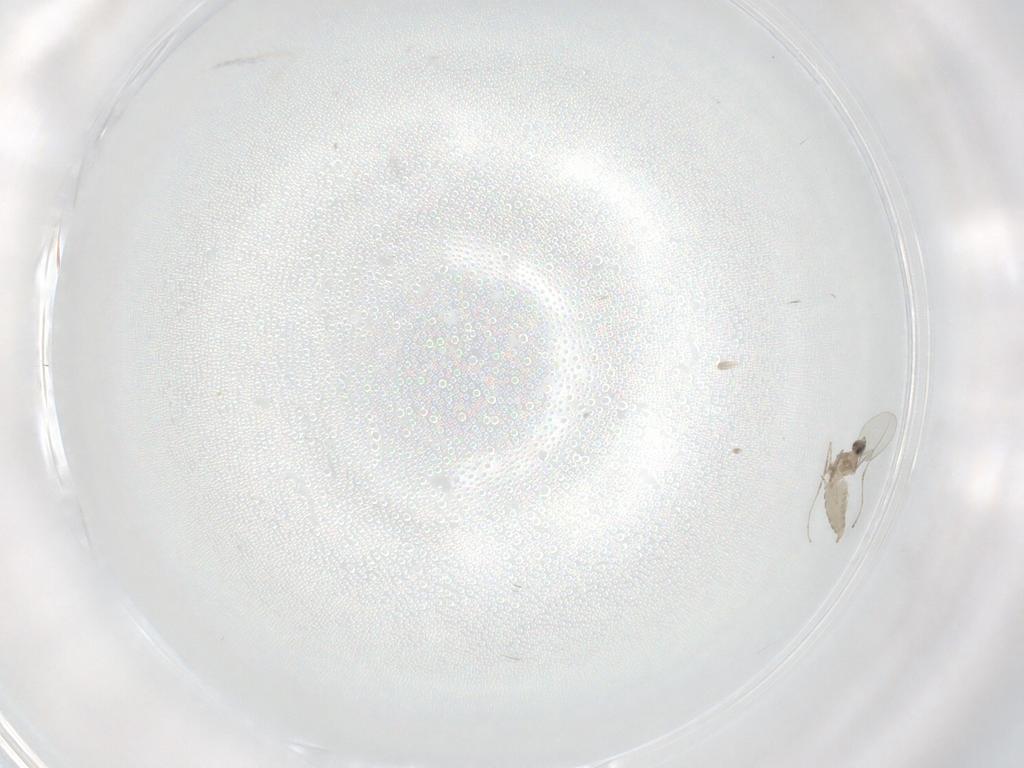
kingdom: Animalia
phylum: Arthropoda
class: Insecta
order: Diptera
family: Cecidomyiidae
